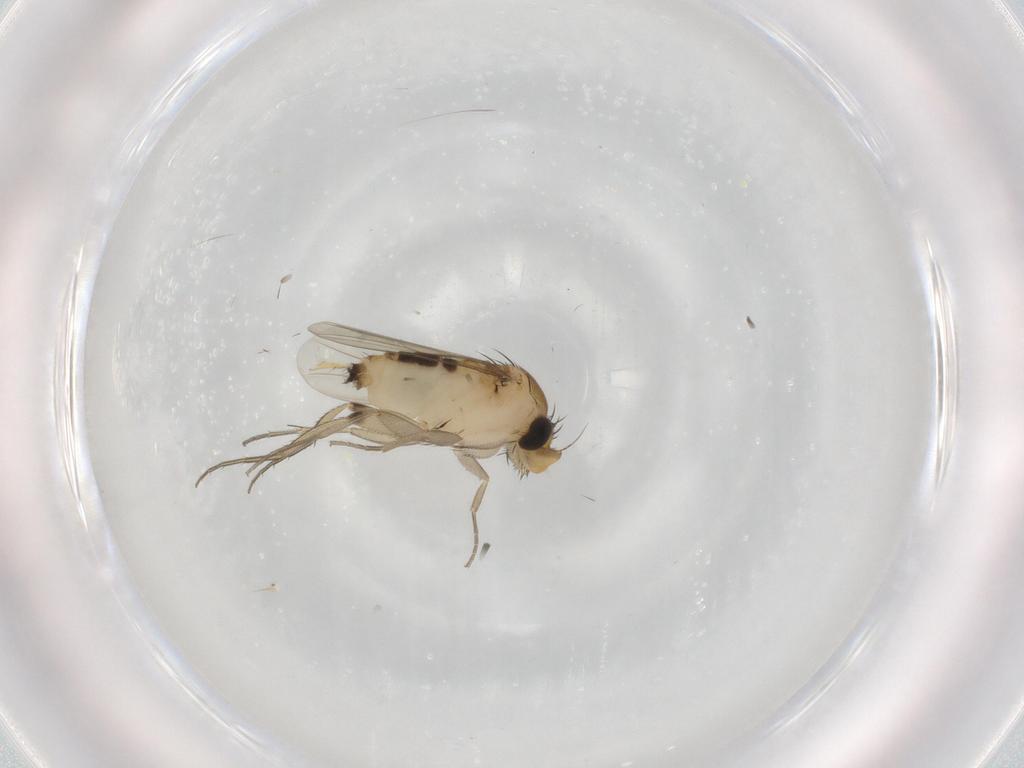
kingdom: Animalia
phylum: Arthropoda
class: Insecta
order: Diptera
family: Phoridae
